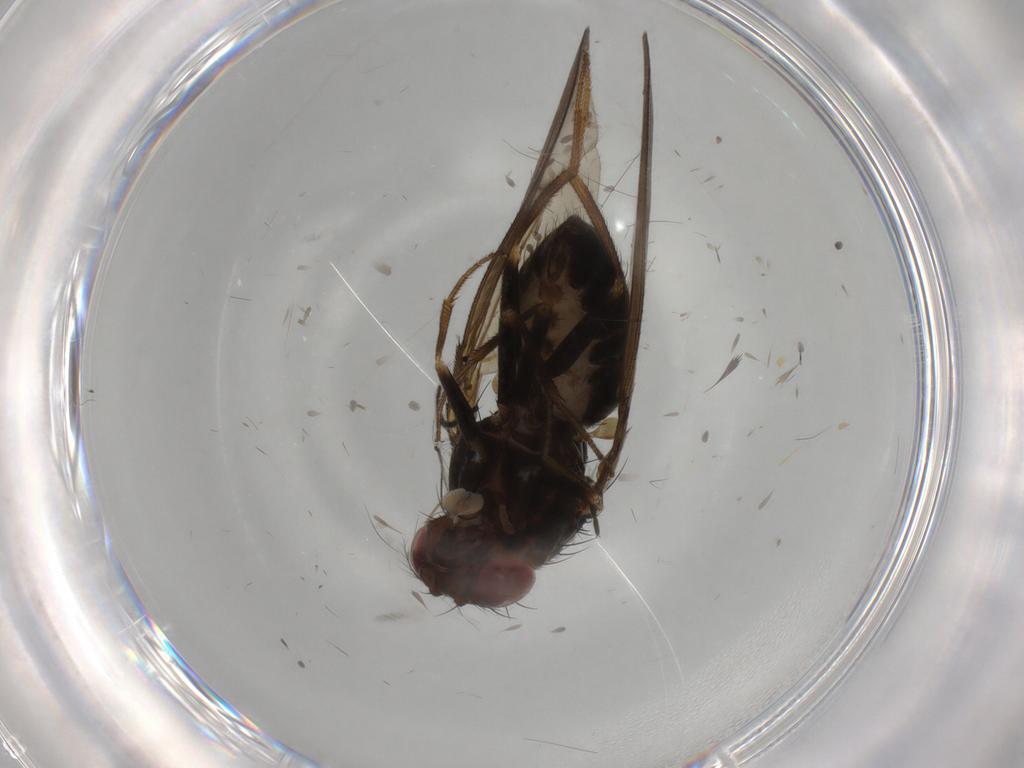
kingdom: Animalia
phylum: Arthropoda
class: Insecta
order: Diptera
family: Drosophilidae
